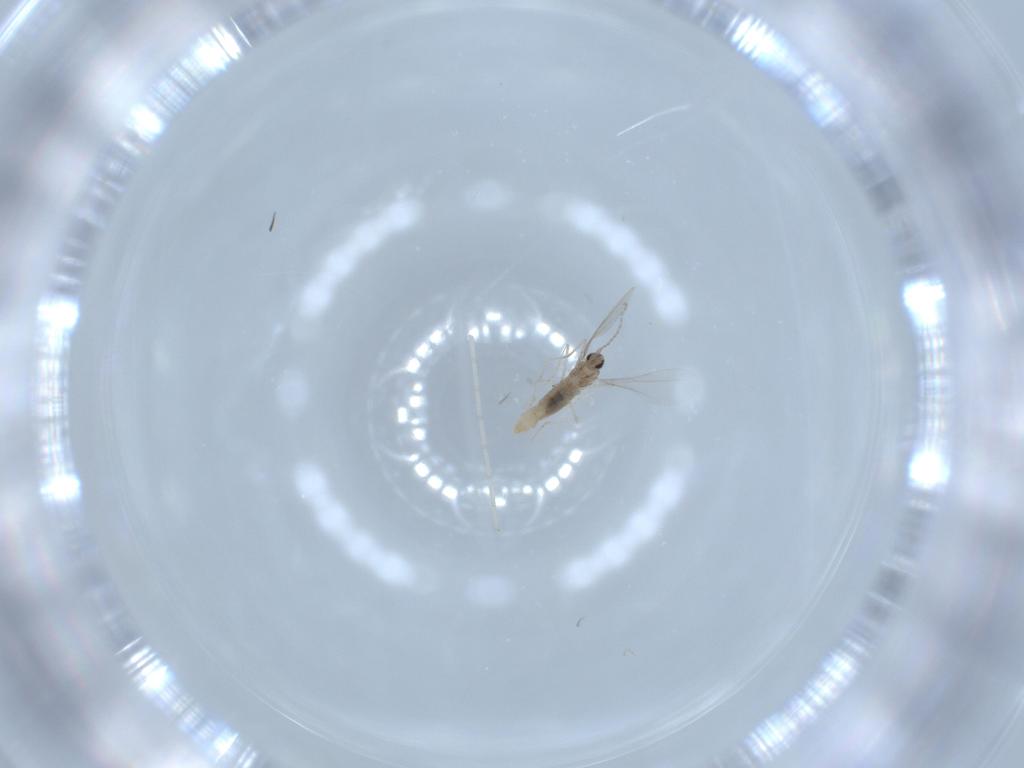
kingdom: Animalia
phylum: Arthropoda
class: Insecta
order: Diptera
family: Cecidomyiidae
